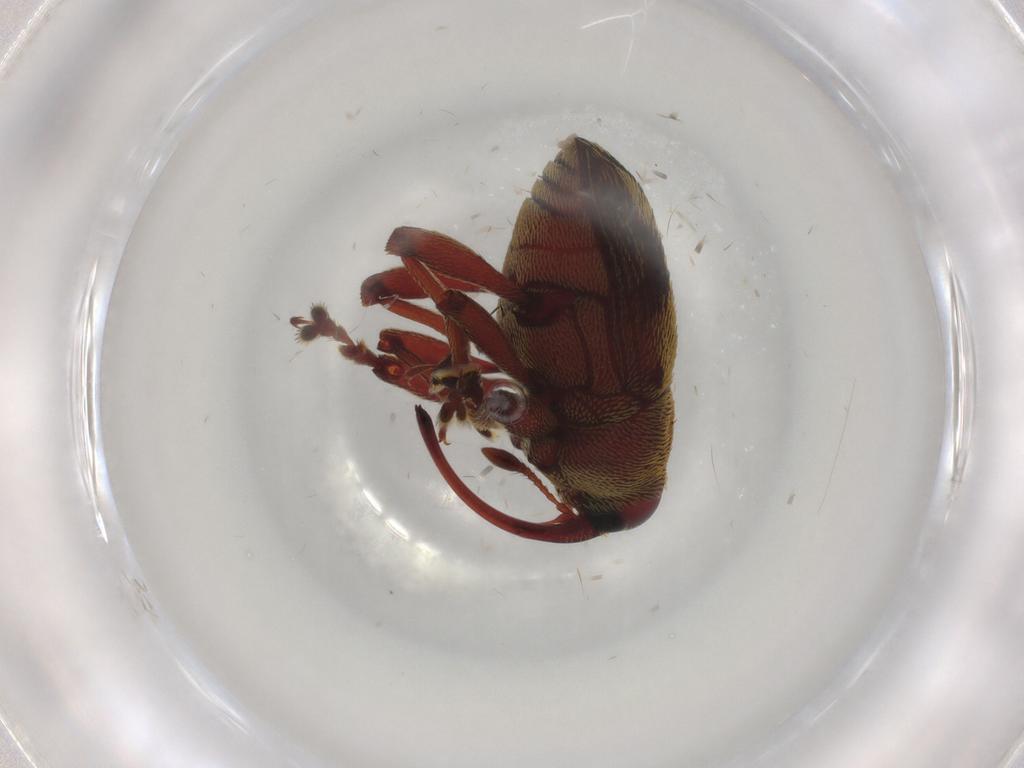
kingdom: Animalia
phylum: Arthropoda
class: Insecta
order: Coleoptera
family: Curculionidae
